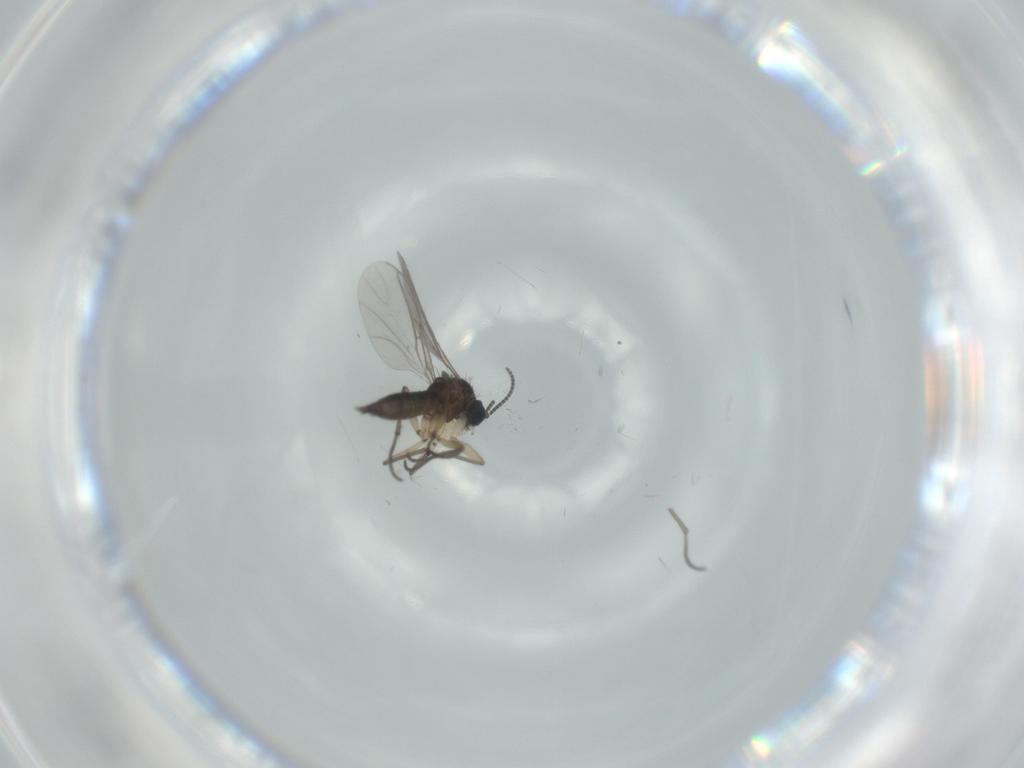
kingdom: Animalia
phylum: Arthropoda
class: Insecta
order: Diptera
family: Sciaridae
